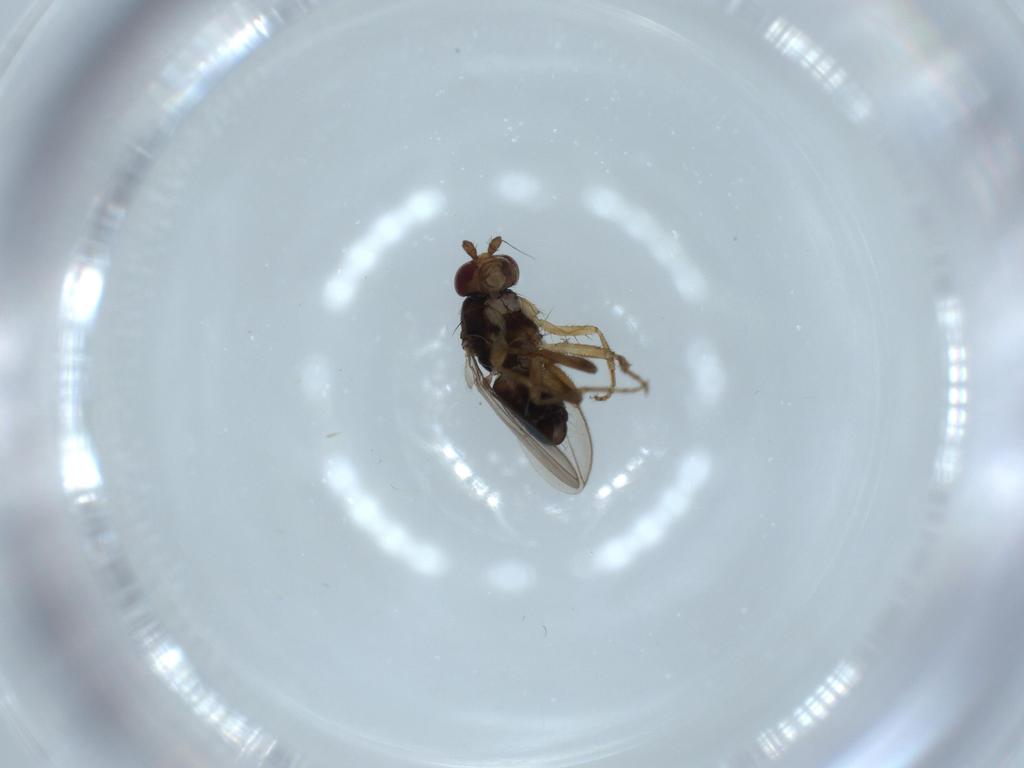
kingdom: Animalia
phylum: Arthropoda
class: Insecta
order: Diptera
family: Sphaeroceridae
